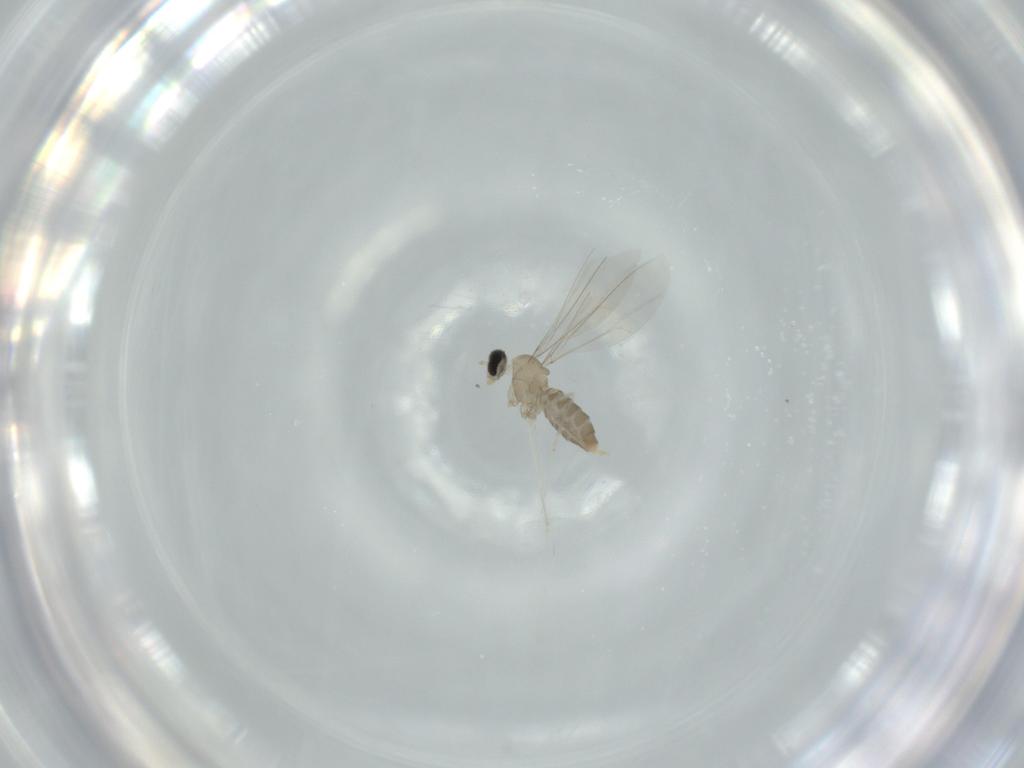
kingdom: Animalia
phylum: Arthropoda
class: Insecta
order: Diptera
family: Cecidomyiidae
